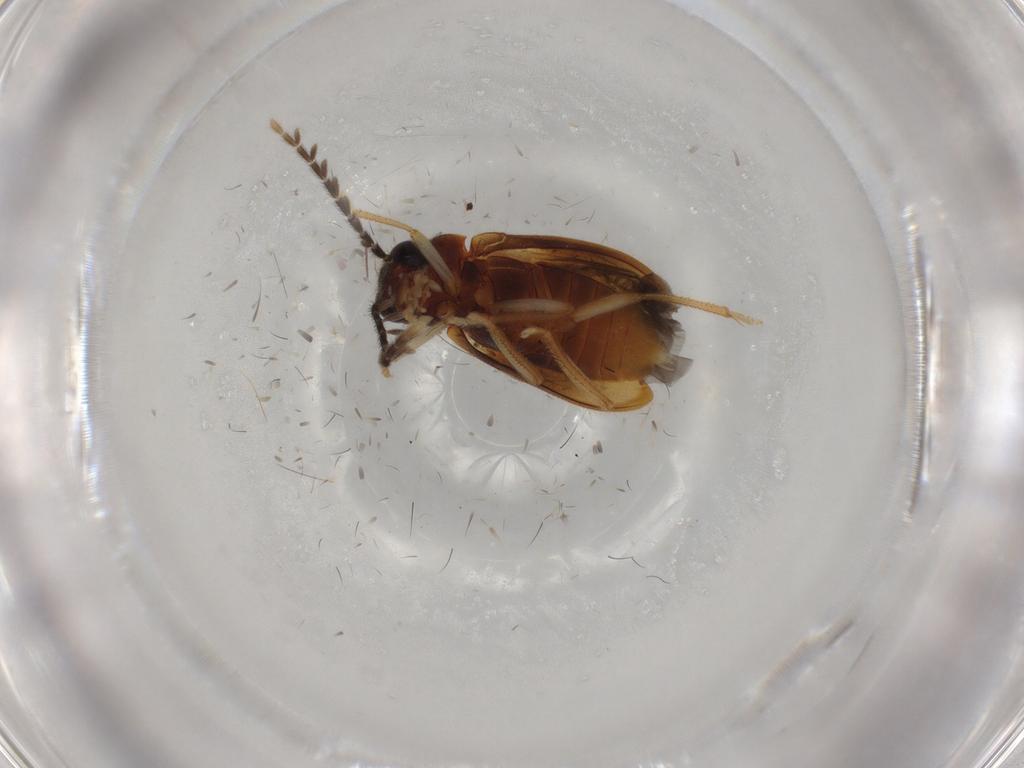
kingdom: Animalia
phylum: Arthropoda
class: Insecta
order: Coleoptera
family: Ptilodactylidae
